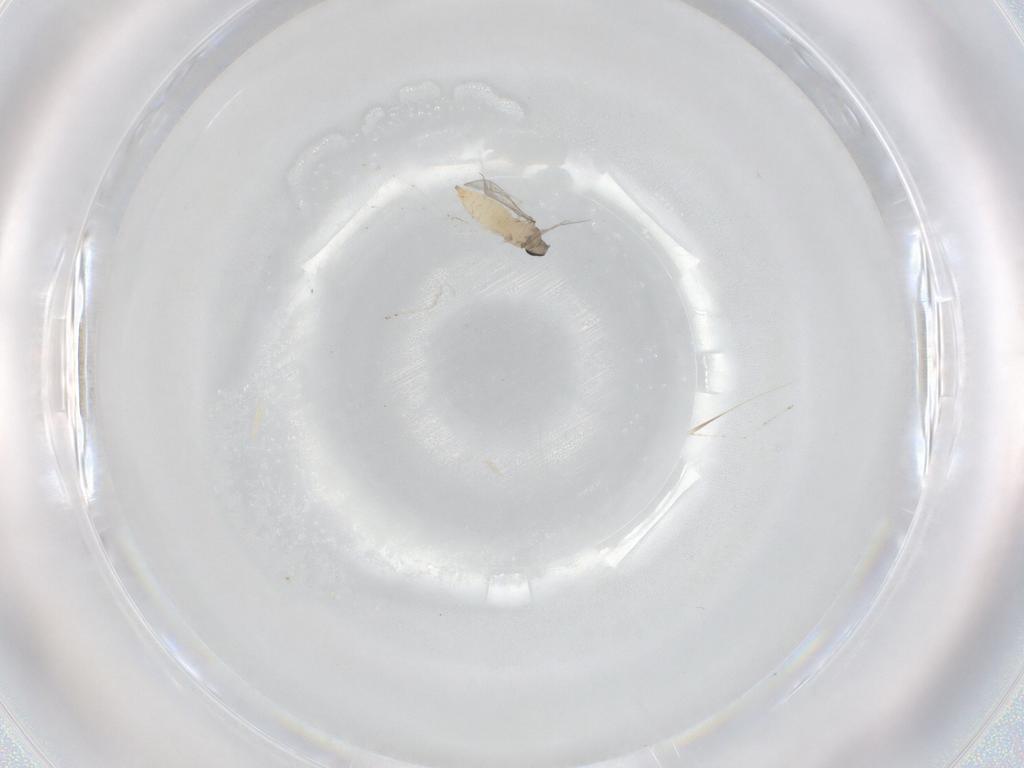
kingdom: Animalia
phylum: Arthropoda
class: Insecta
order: Diptera
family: Cecidomyiidae
